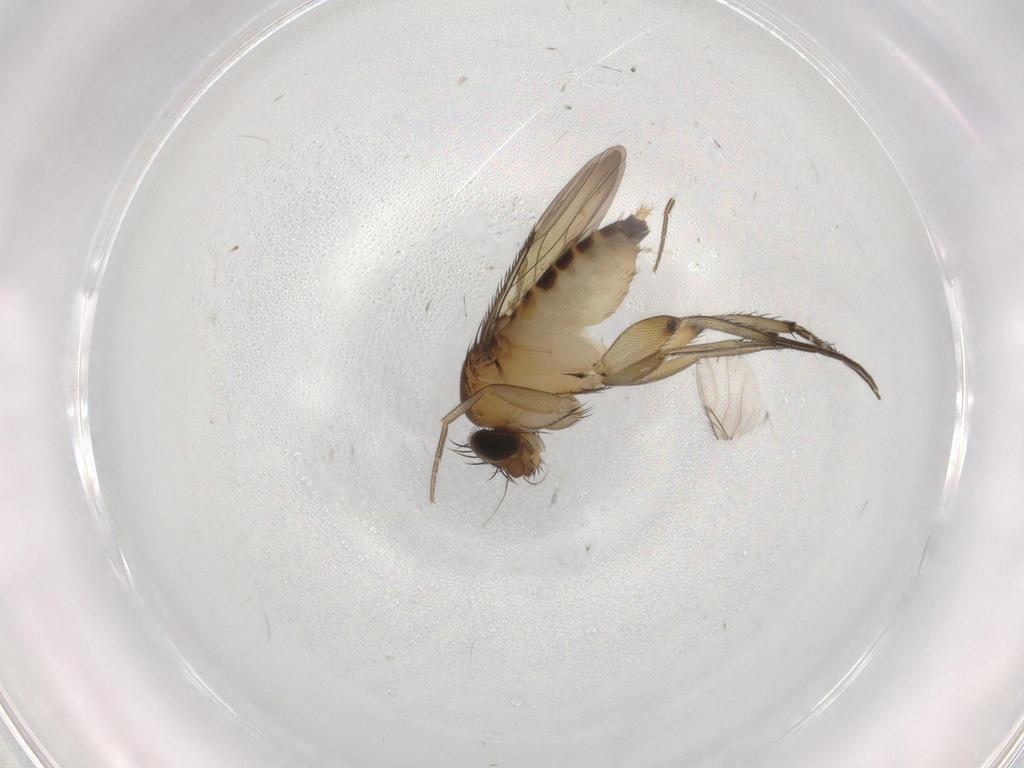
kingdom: Animalia
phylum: Arthropoda
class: Insecta
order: Diptera
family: Phoridae
